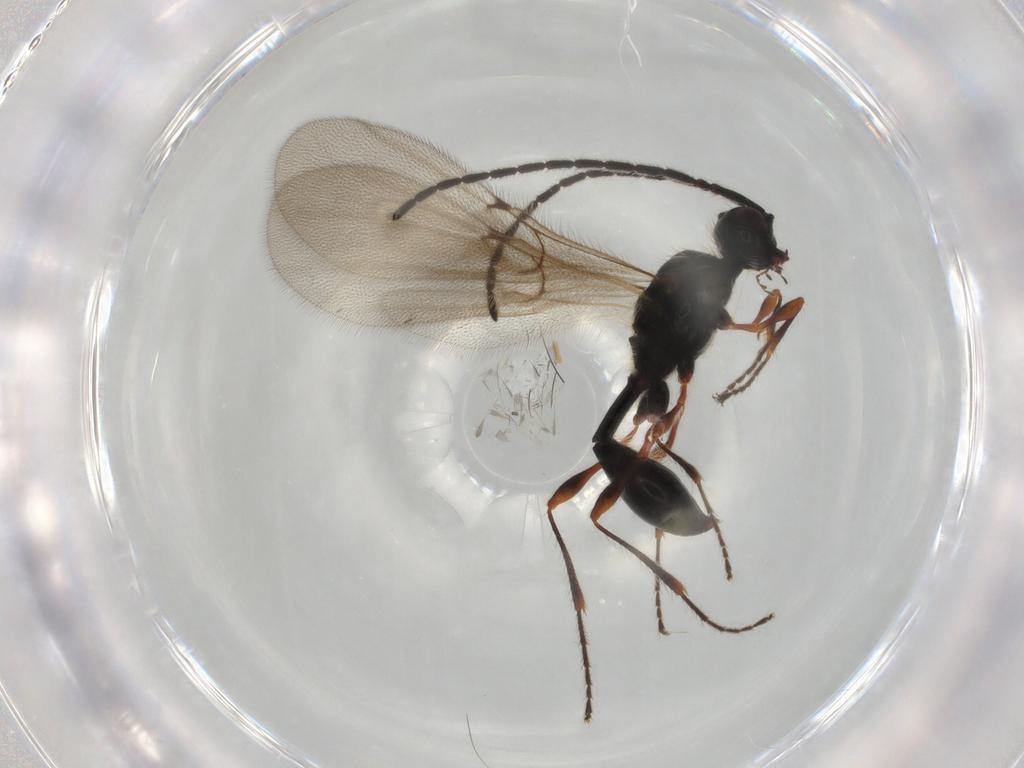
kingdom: Animalia
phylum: Arthropoda
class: Insecta
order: Hymenoptera
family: Diapriidae
